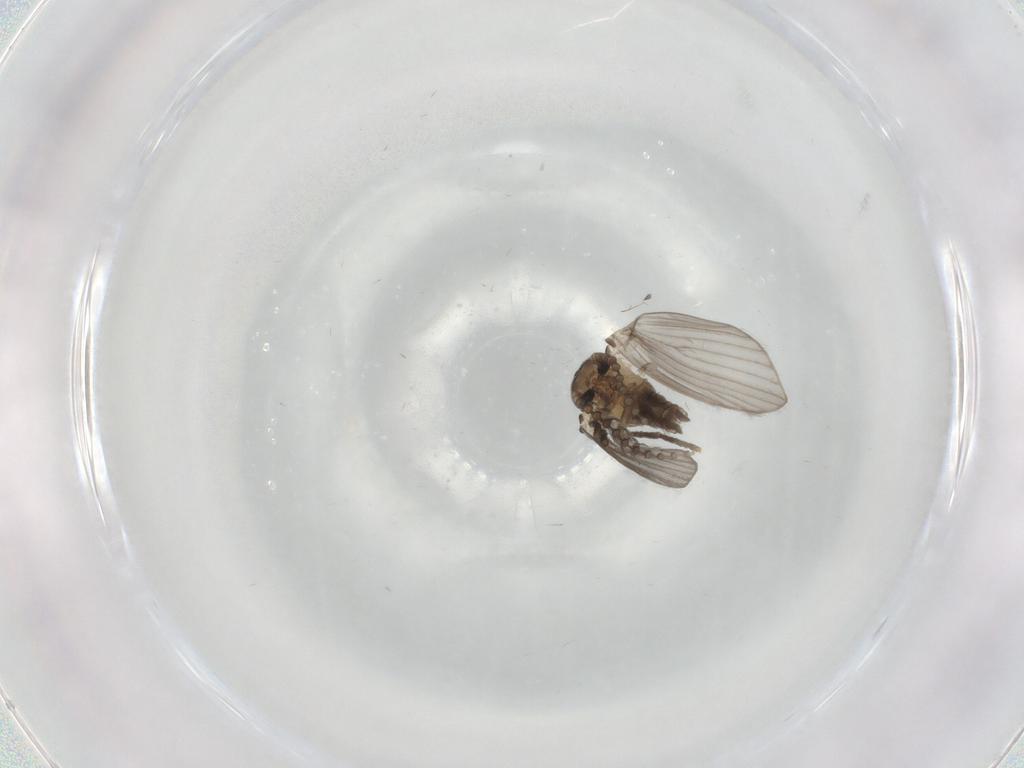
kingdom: Animalia
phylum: Arthropoda
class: Insecta
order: Diptera
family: Psychodidae
